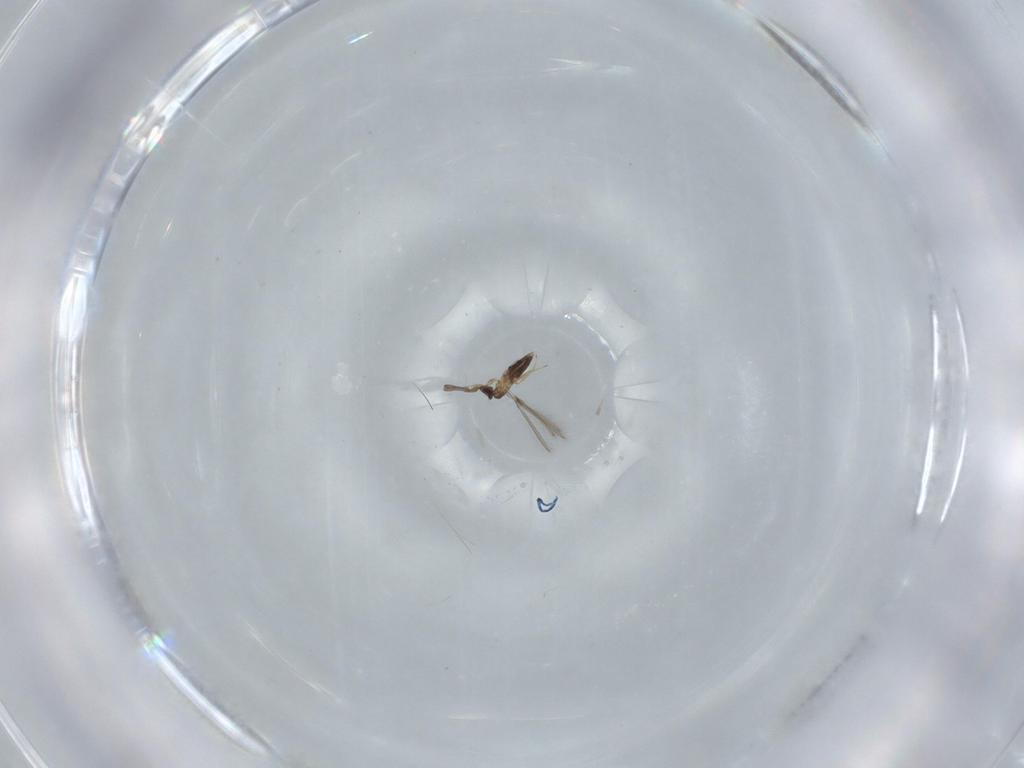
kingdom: Animalia
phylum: Arthropoda
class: Insecta
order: Hymenoptera
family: Mymaridae
